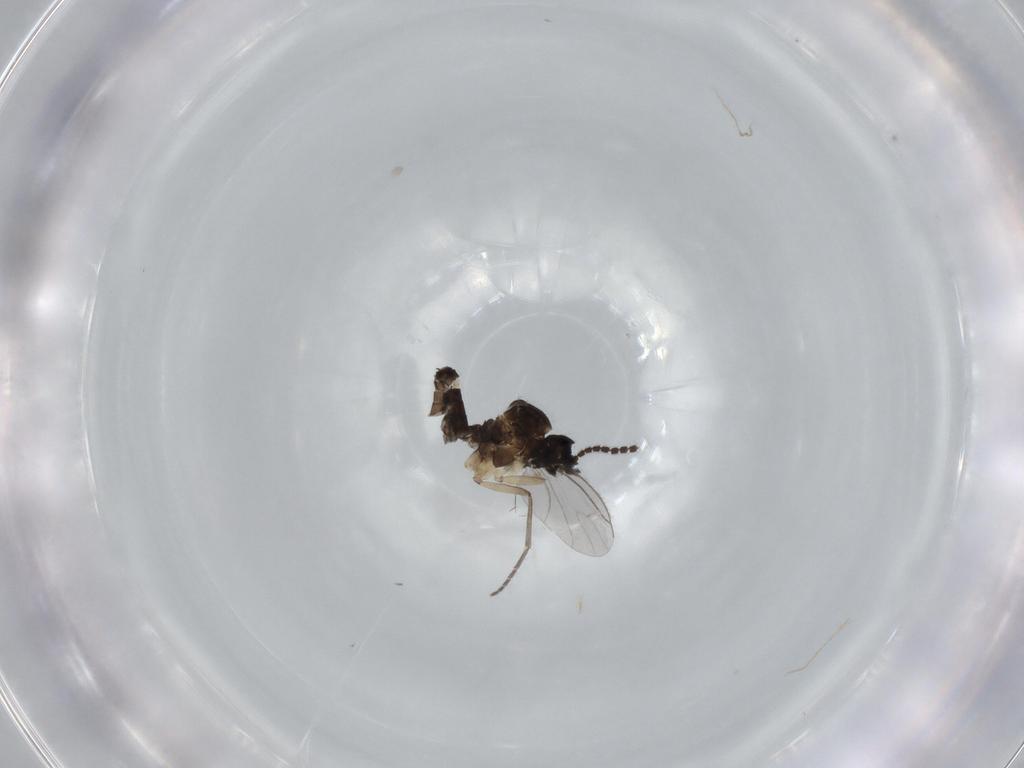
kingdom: Animalia
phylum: Arthropoda
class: Insecta
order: Diptera
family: Sciaridae
